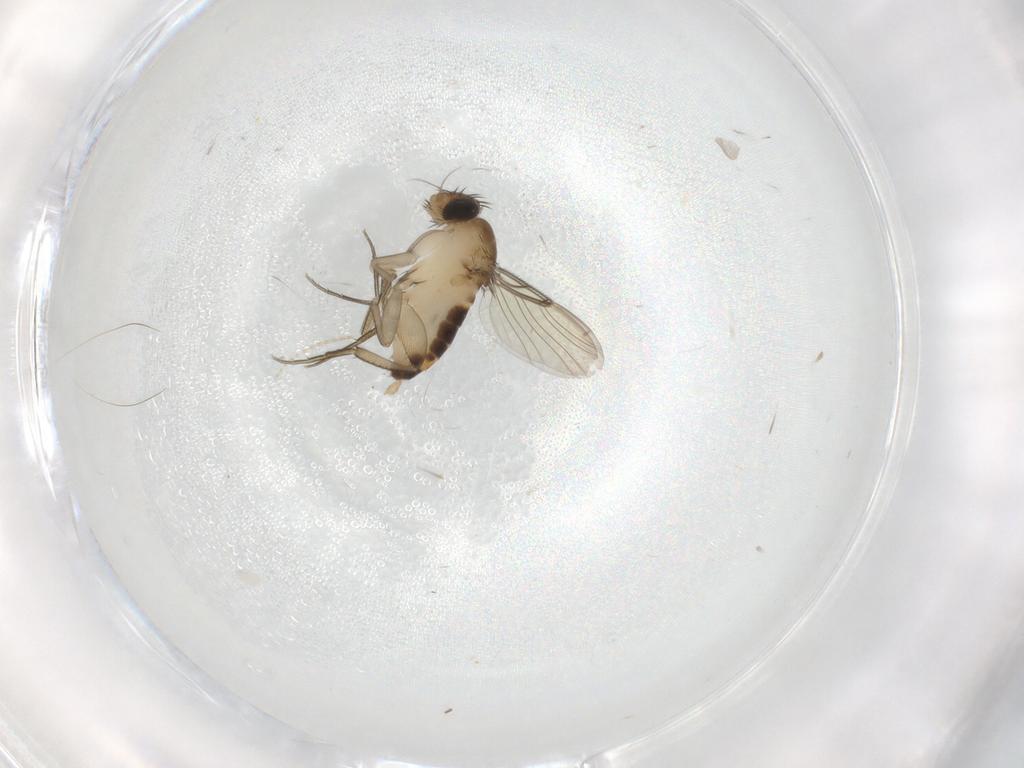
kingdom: Animalia
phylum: Arthropoda
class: Insecta
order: Diptera
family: Phoridae
